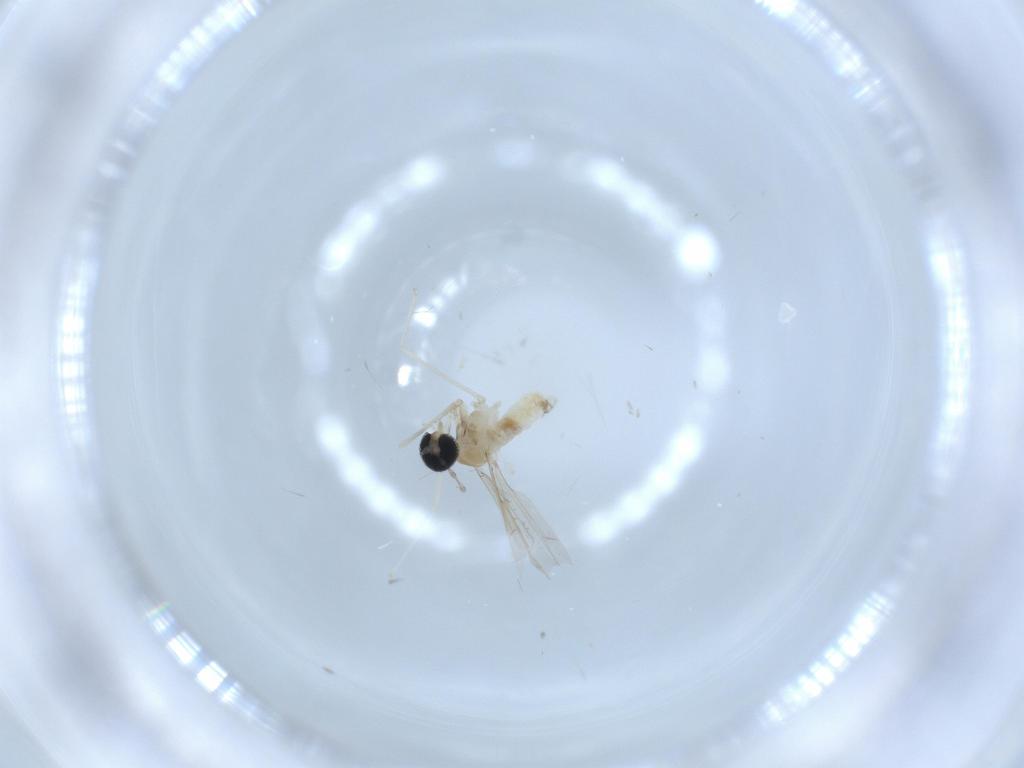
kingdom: Animalia
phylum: Arthropoda
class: Insecta
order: Diptera
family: Cecidomyiidae
